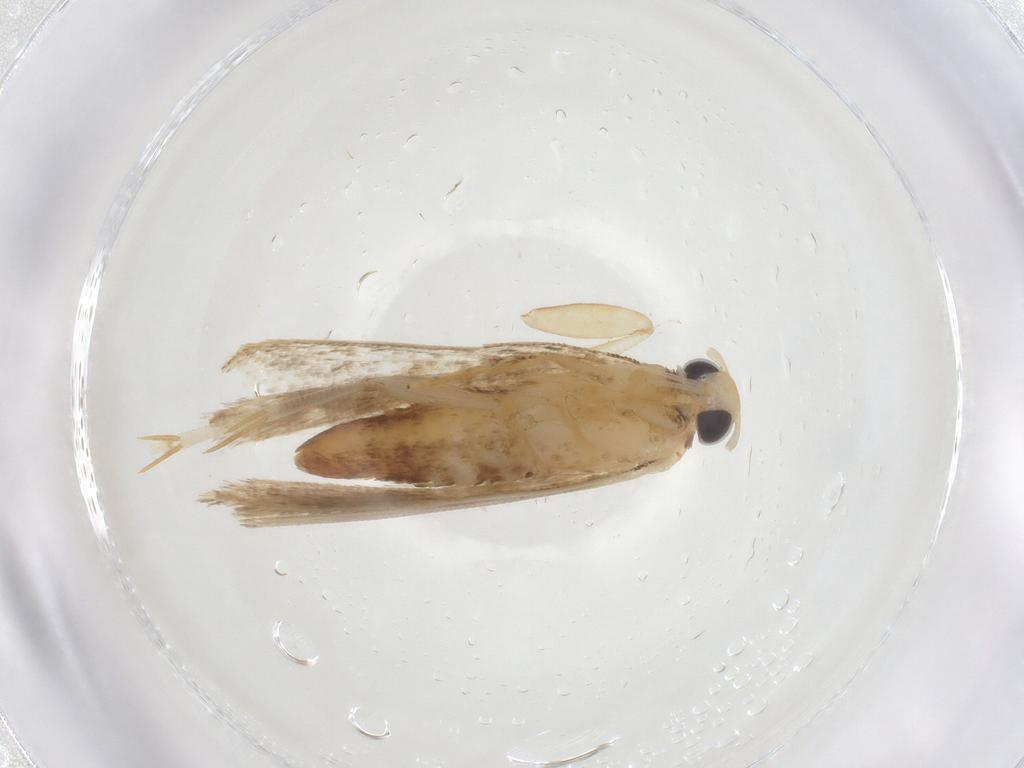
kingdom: Animalia
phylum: Arthropoda
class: Insecta
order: Lepidoptera
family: Gelechiidae
